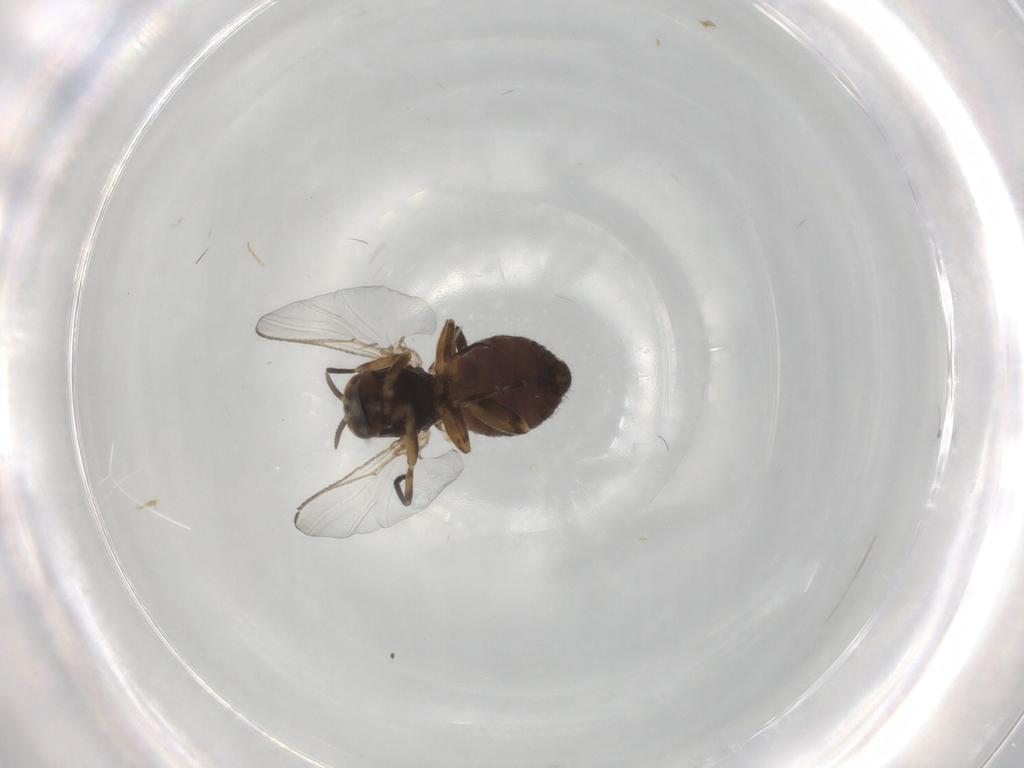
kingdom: Animalia
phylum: Arthropoda
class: Insecta
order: Diptera
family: Simuliidae
